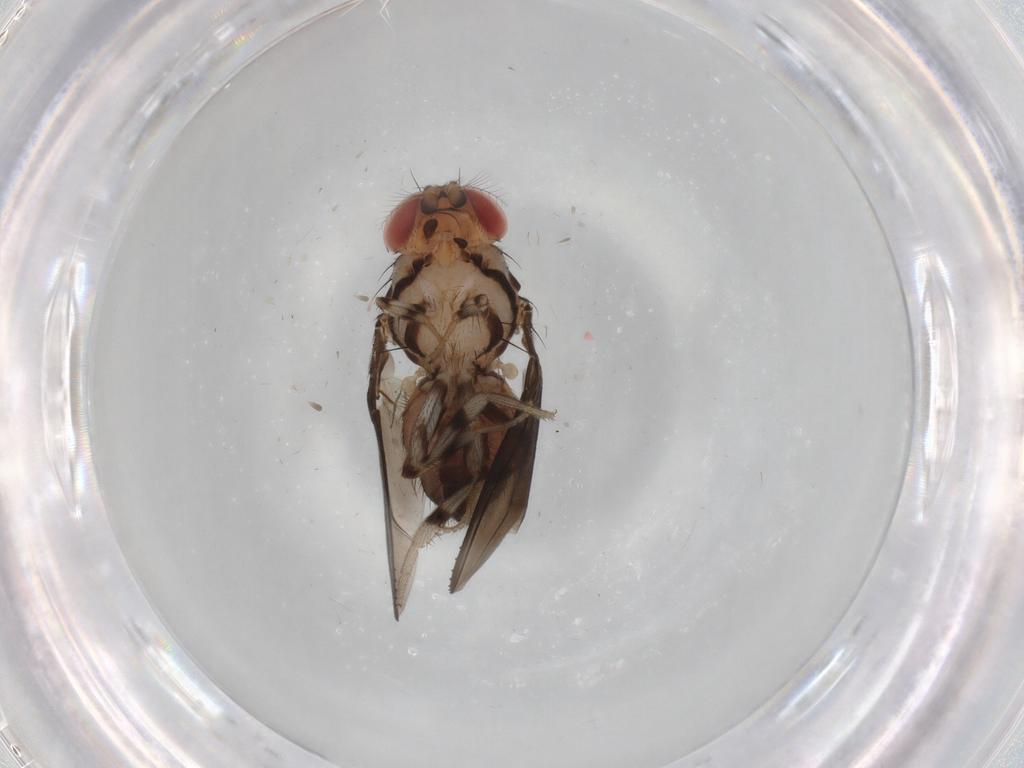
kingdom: Animalia
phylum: Arthropoda
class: Insecta
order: Diptera
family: Drosophilidae
